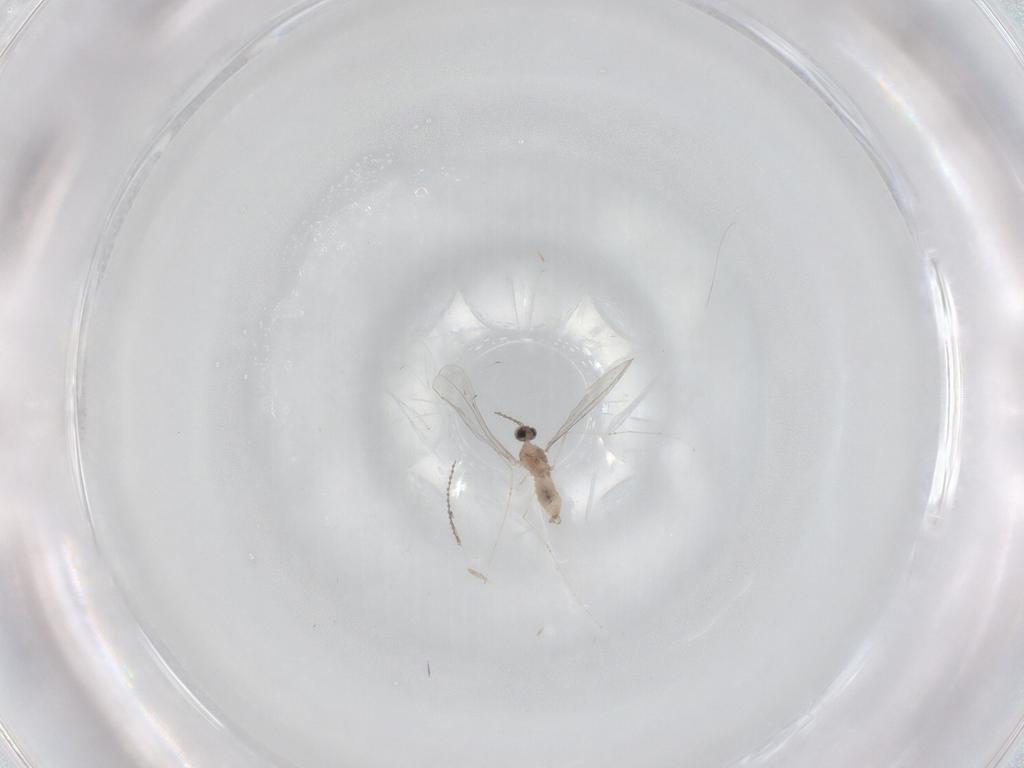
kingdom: Animalia
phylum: Arthropoda
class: Insecta
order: Diptera
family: Cecidomyiidae
